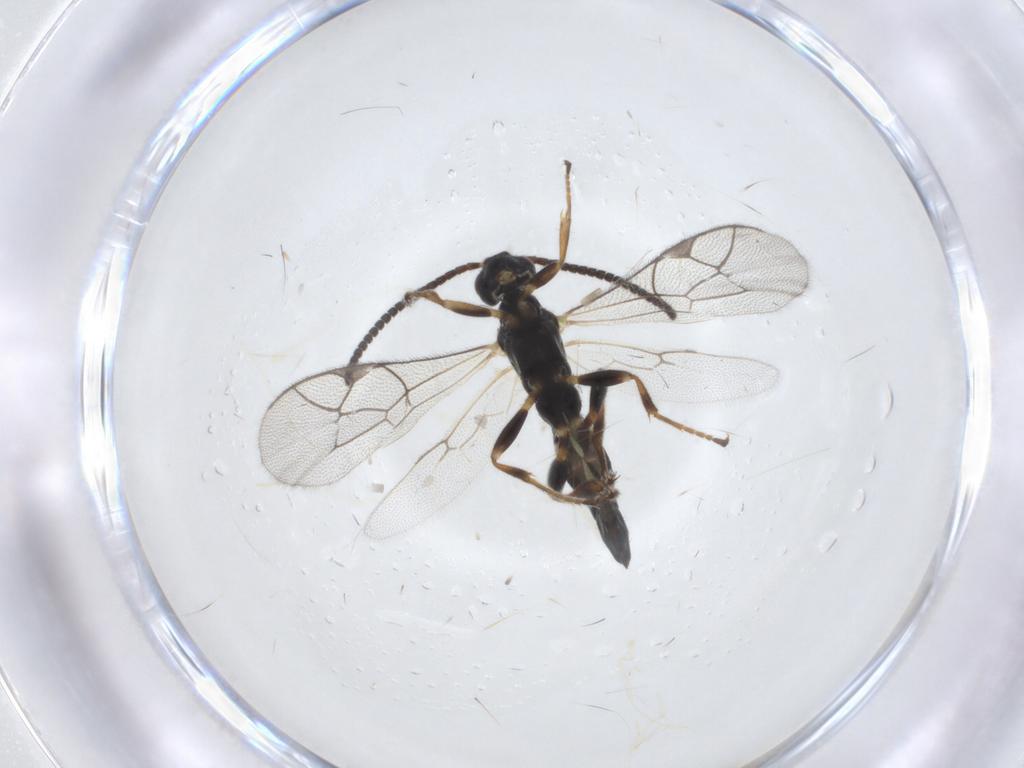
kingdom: Animalia
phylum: Arthropoda
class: Insecta
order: Hymenoptera
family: Ichneumonidae
